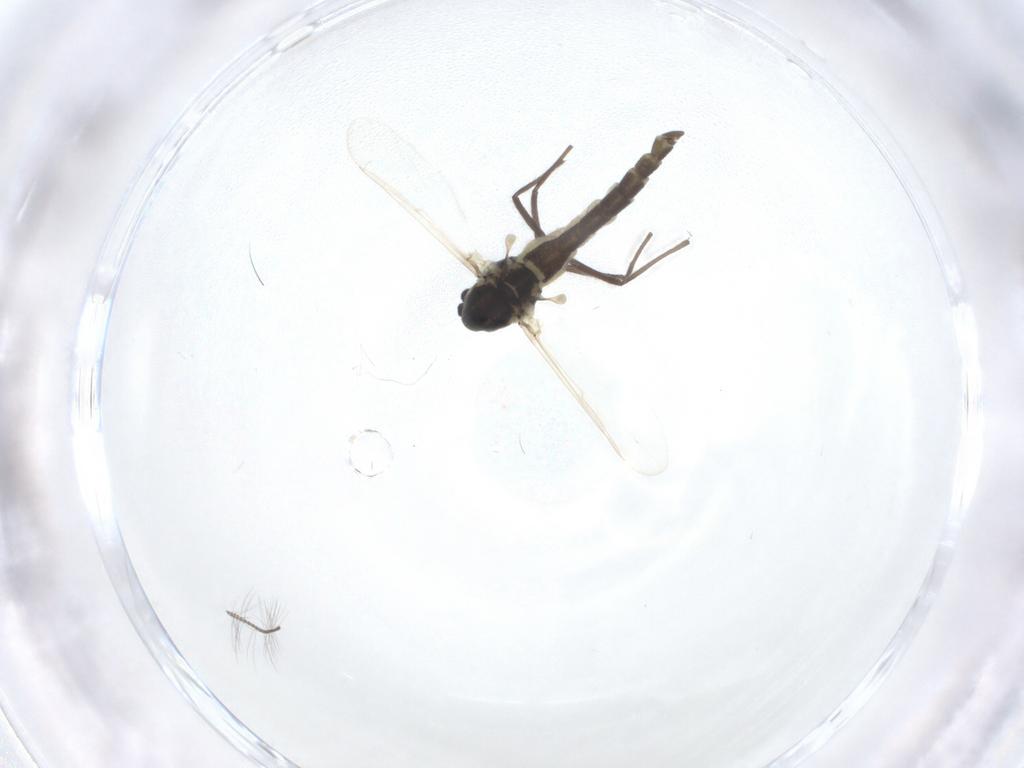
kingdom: Animalia
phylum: Arthropoda
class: Insecta
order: Diptera
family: Chironomidae
